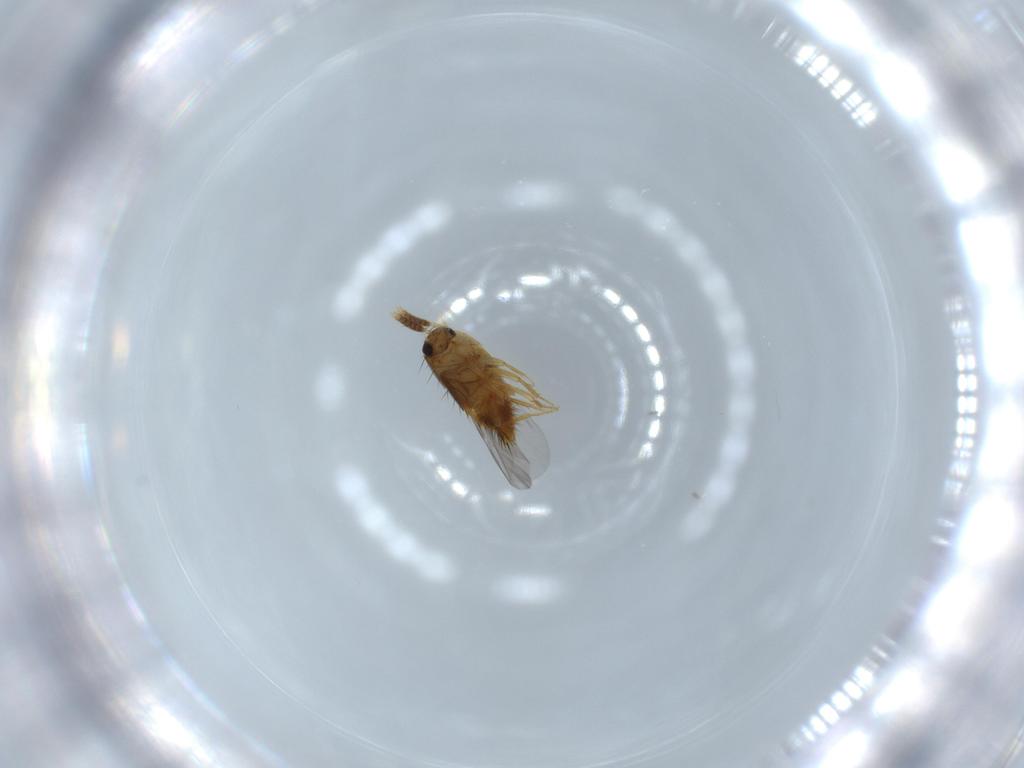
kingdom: Animalia
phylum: Arthropoda
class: Insecta
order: Coleoptera
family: Staphylinidae
